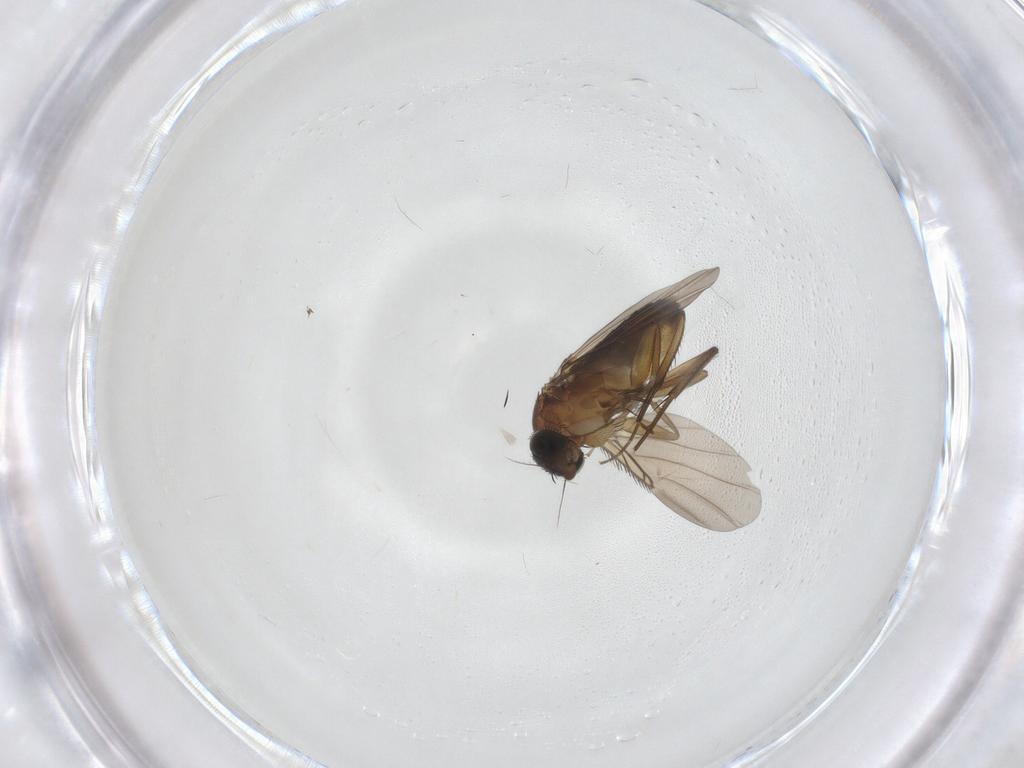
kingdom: Animalia
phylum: Arthropoda
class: Insecta
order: Diptera
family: Phoridae
